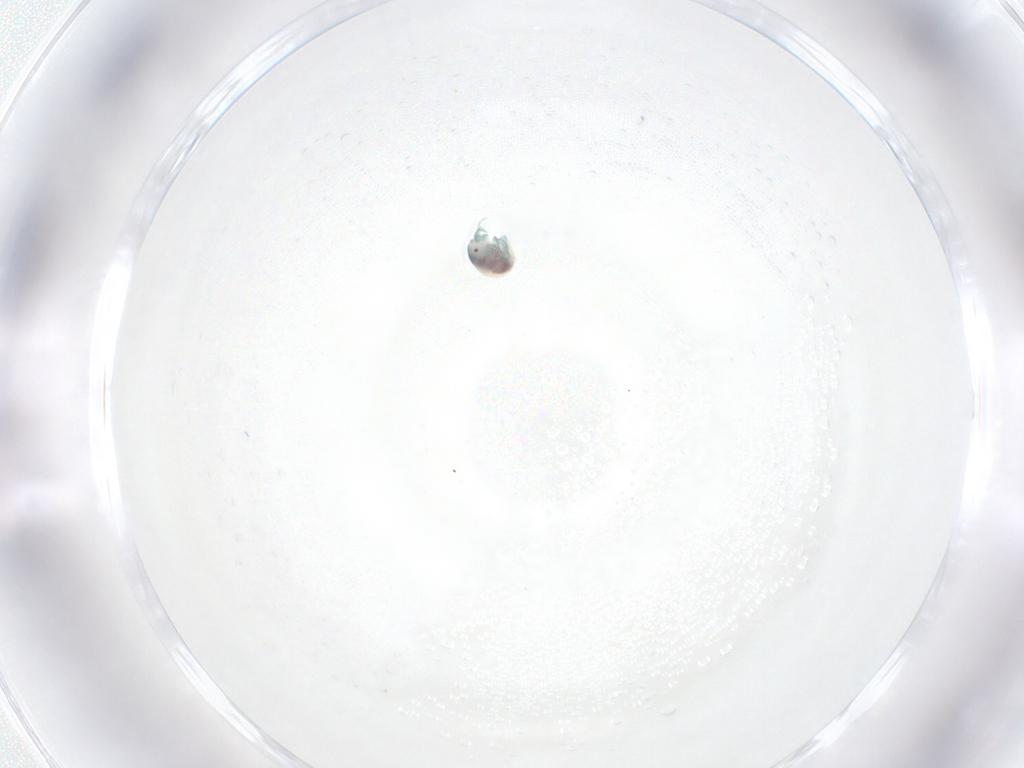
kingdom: Animalia
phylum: Arthropoda
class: Arachnida
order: Trombidiformes
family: Arrenuridae
